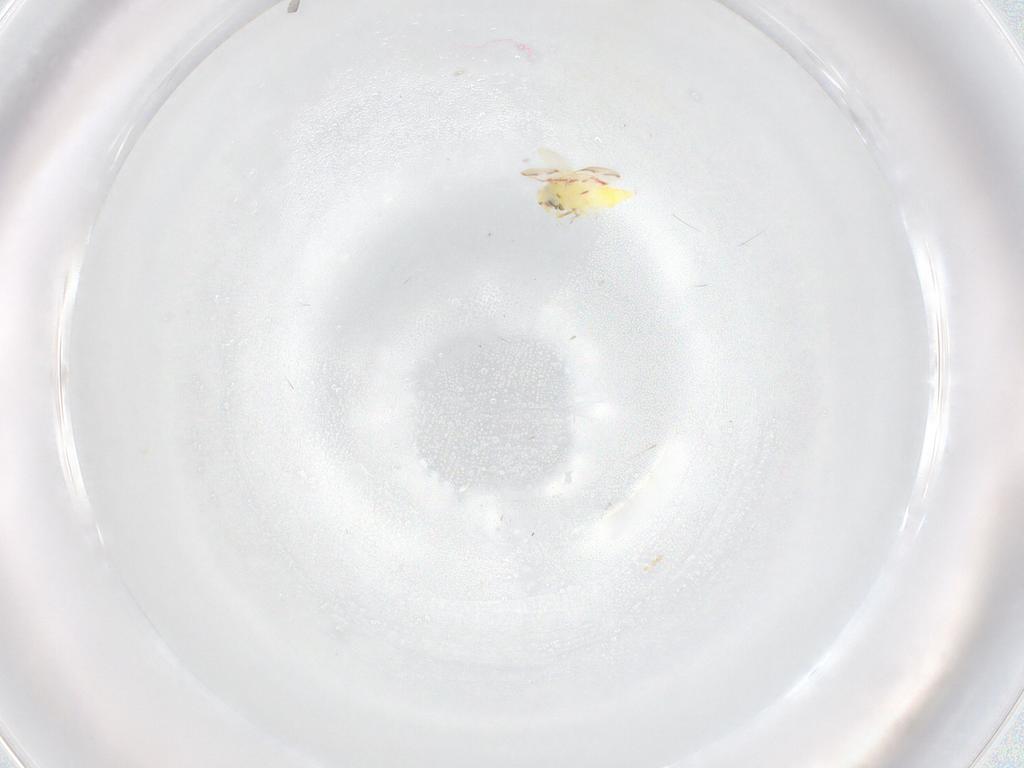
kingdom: Animalia
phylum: Arthropoda
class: Insecta
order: Hemiptera
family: Aleyrodidae
